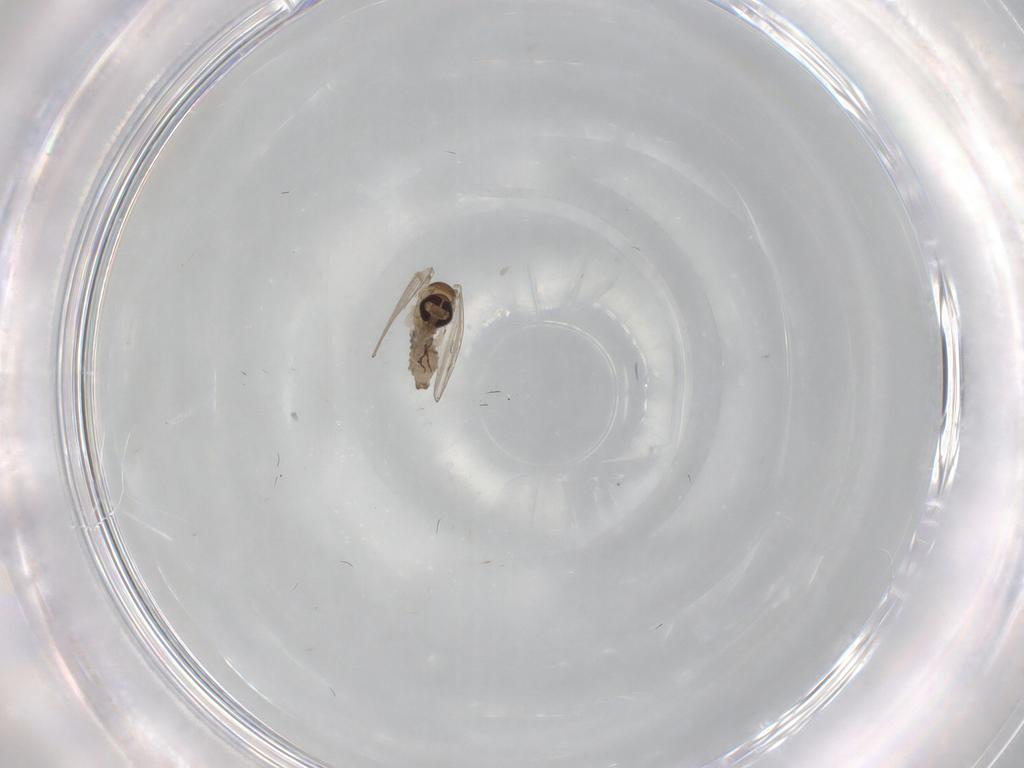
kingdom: Animalia
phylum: Arthropoda
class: Insecta
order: Diptera
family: Psychodidae
